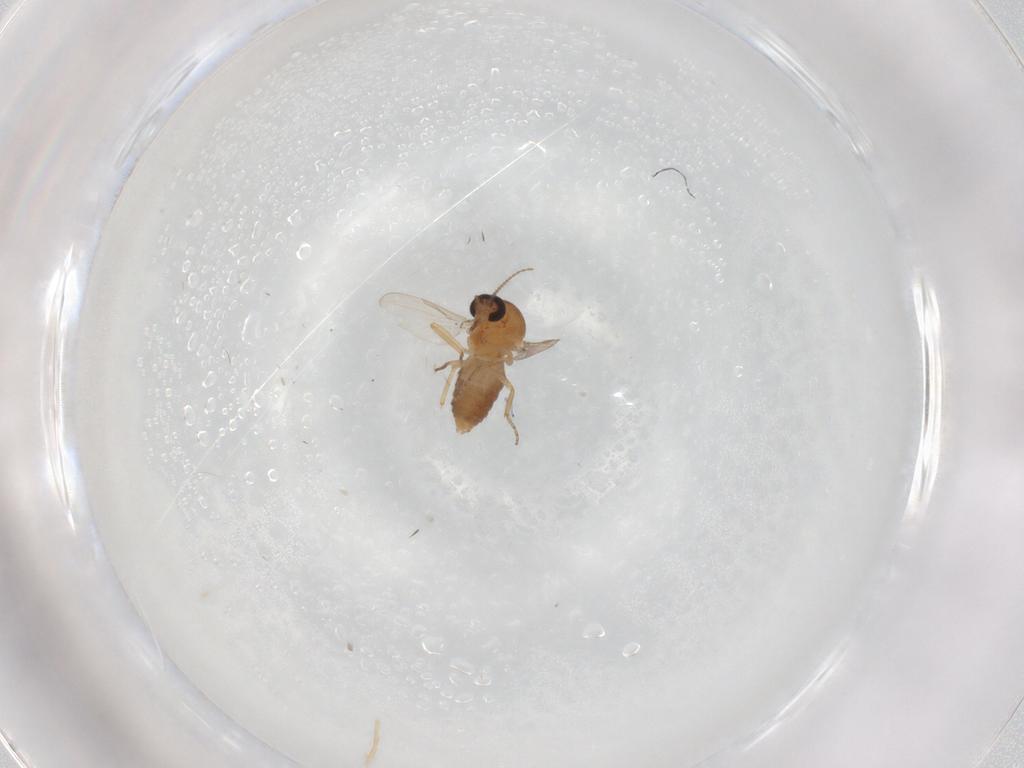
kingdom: Animalia
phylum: Arthropoda
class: Insecta
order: Diptera
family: Ceratopogonidae
